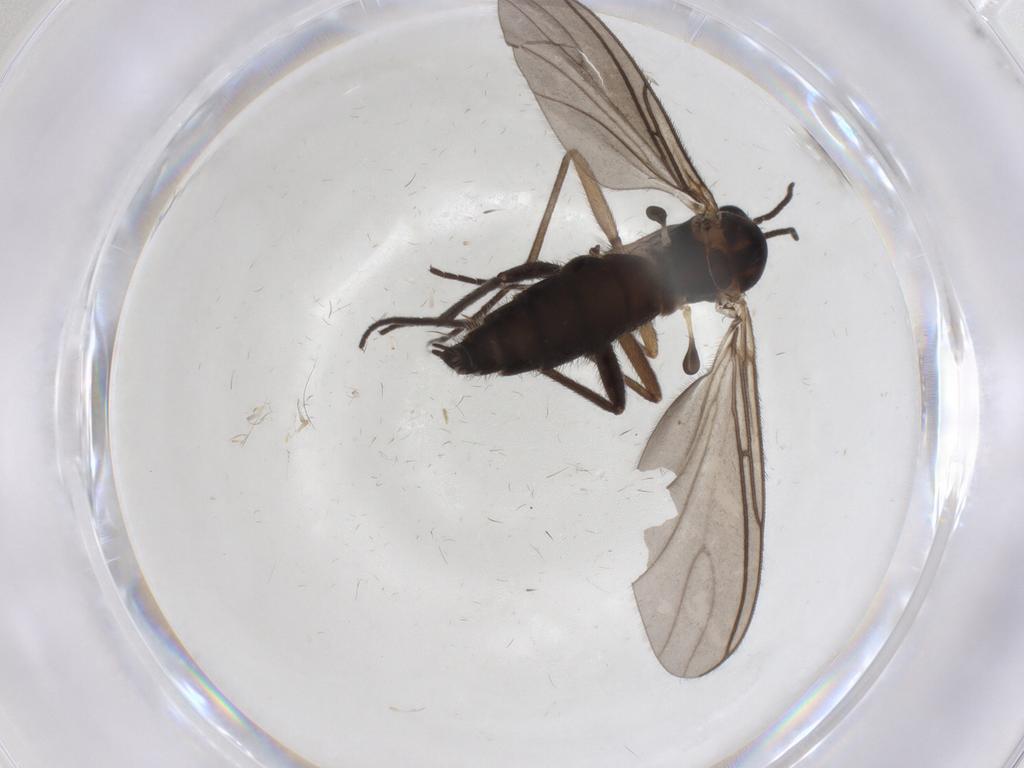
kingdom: Animalia
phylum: Arthropoda
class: Insecta
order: Diptera
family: Sciaridae
